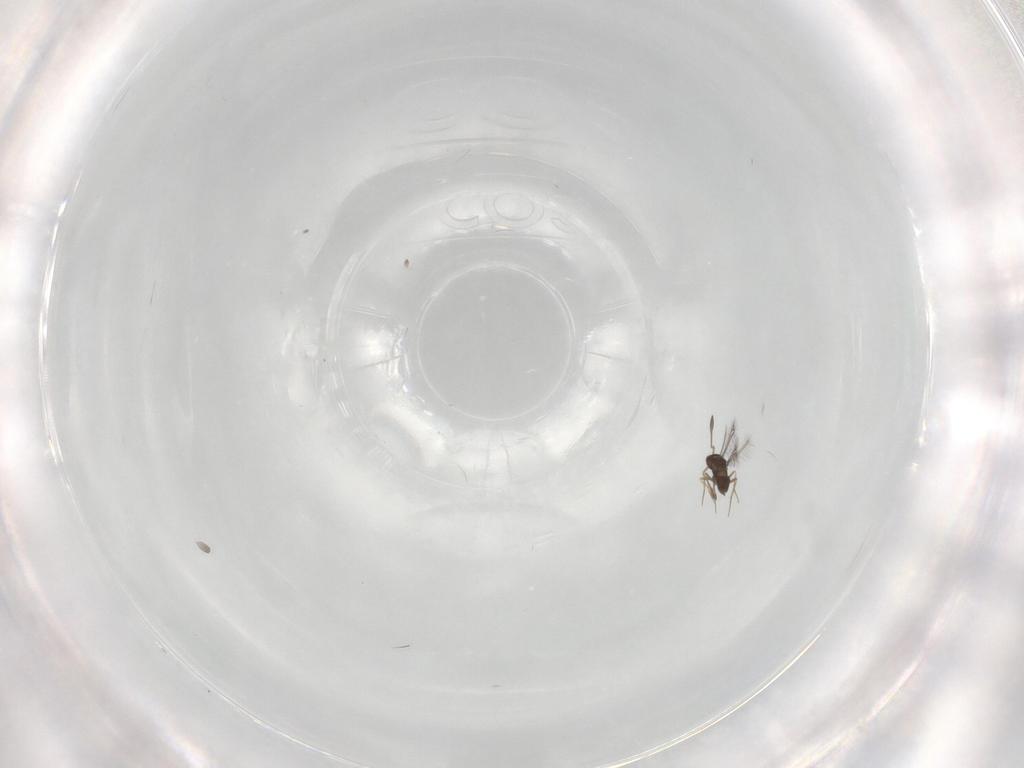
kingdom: Animalia
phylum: Arthropoda
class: Insecta
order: Hymenoptera
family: Mymaridae
